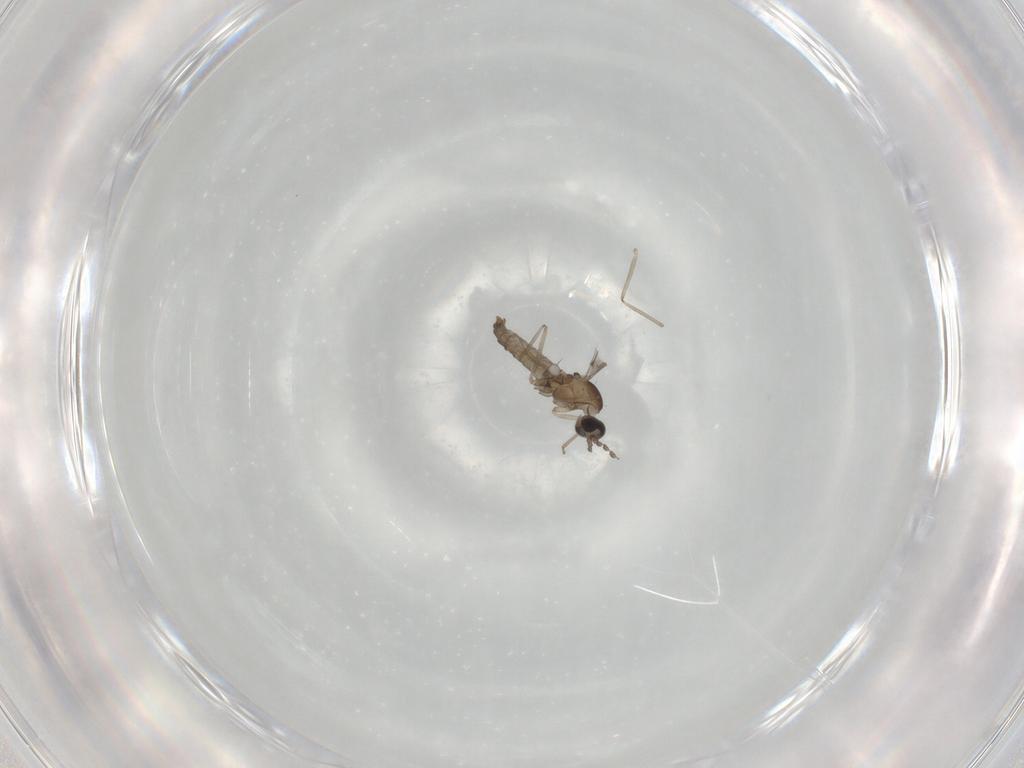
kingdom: Animalia
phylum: Arthropoda
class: Insecta
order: Diptera
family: Cecidomyiidae
